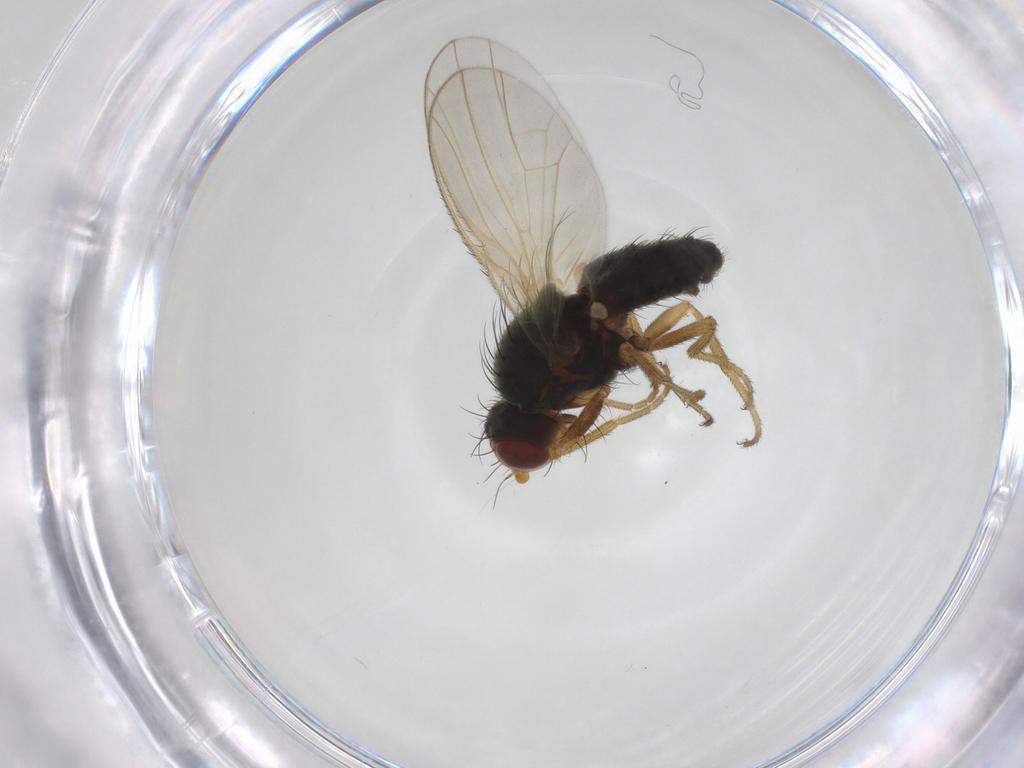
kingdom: Animalia
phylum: Arthropoda
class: Insecta
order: Diptera
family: Heleomyzidae
